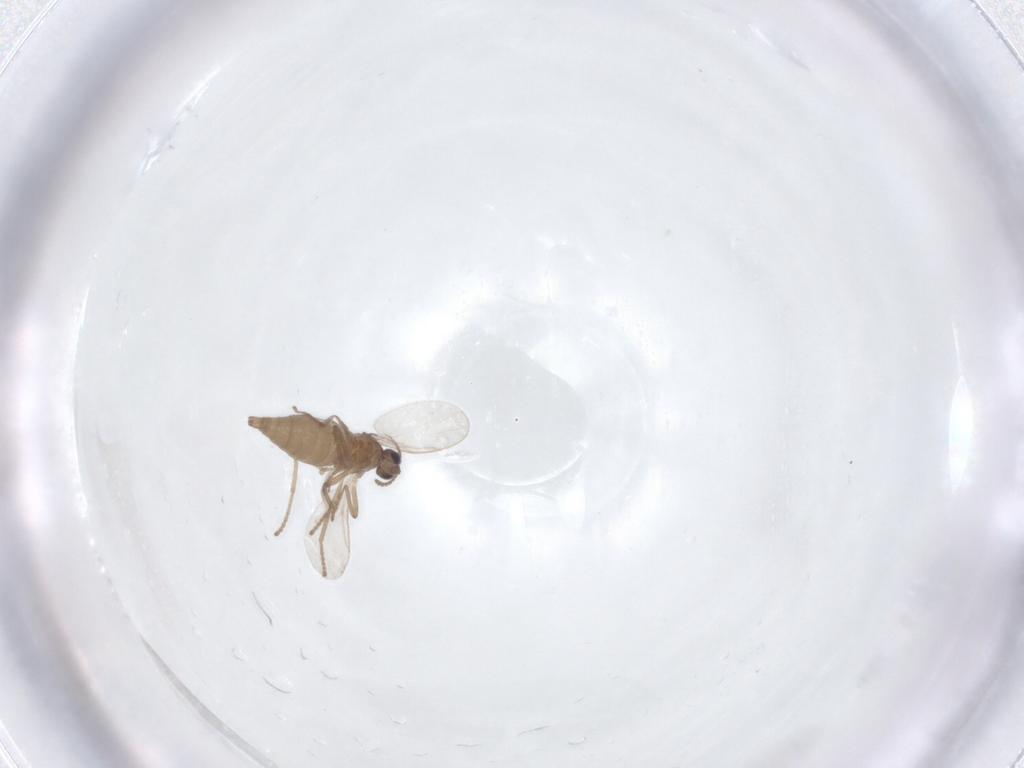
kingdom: Animalia
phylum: Arthropoda
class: Insecta
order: Diptera
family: Cecidomyiidae
